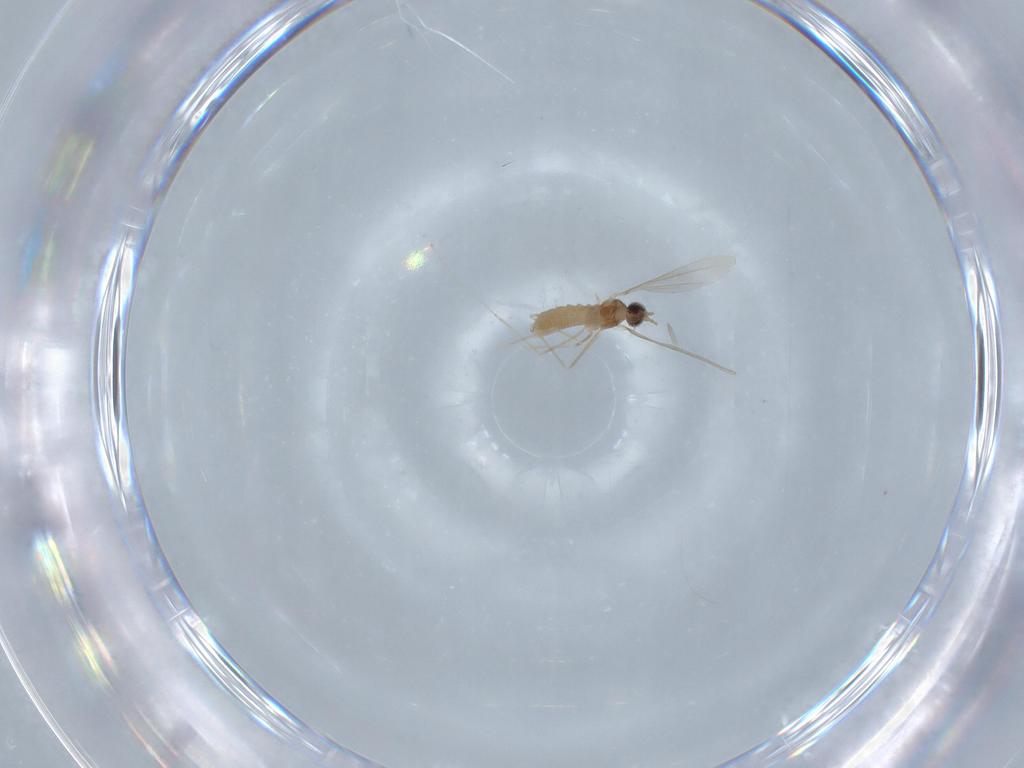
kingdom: Animalia
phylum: Arthropoda
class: Insecta
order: Diptera
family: Cecidomyiidae
